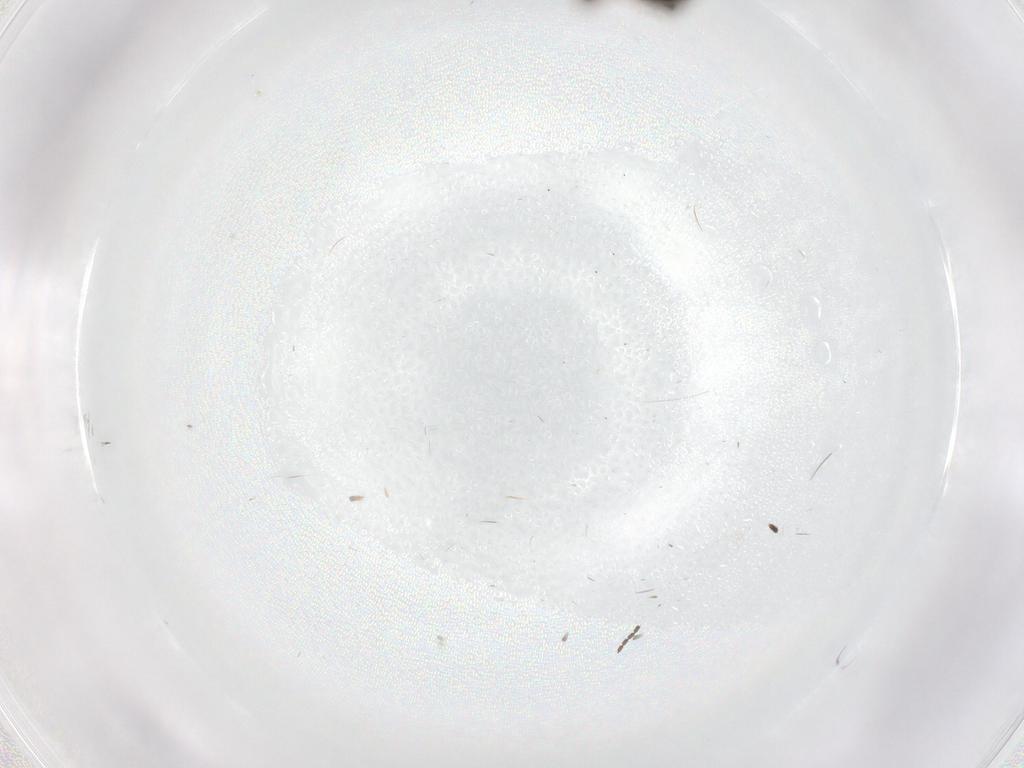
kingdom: Animalia
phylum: Arthropoda
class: Insecta
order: Diptera
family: Phoridae
